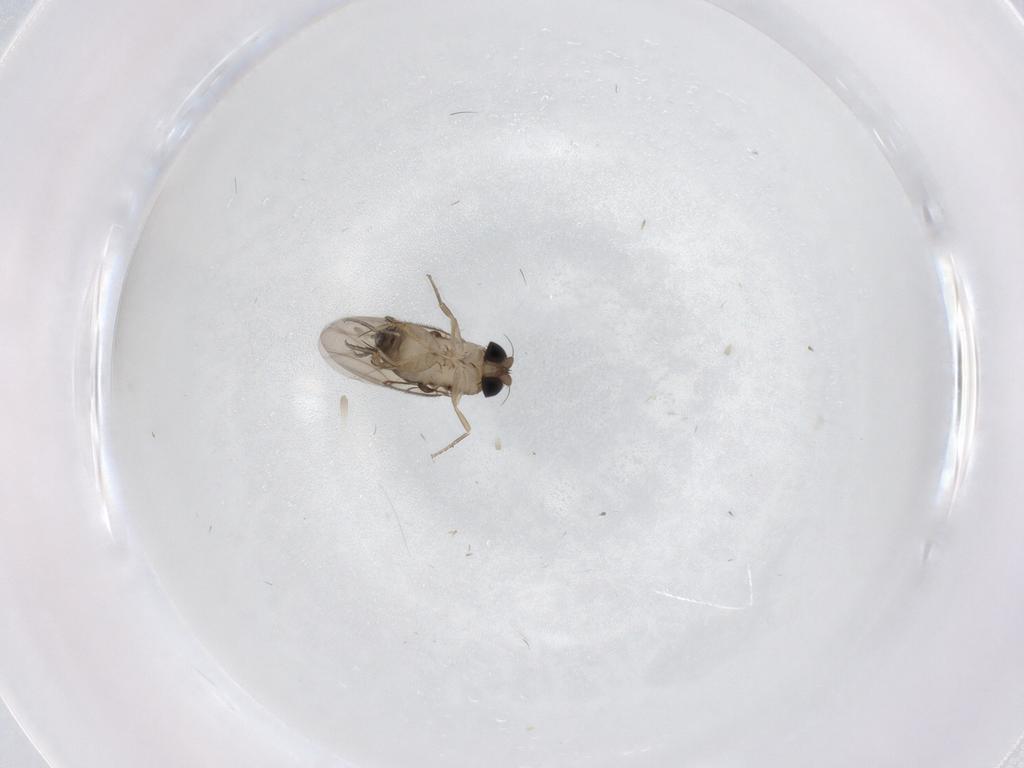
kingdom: Animalia
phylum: Arthropoda
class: Insecta
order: Diptera
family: Phoridae
